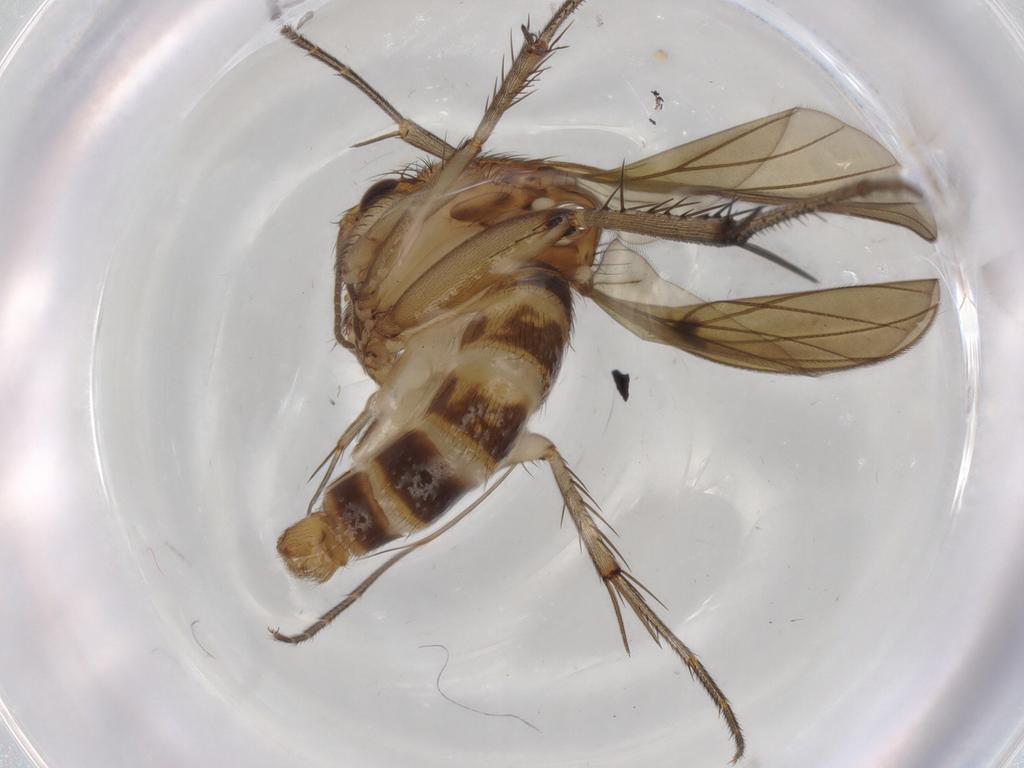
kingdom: Animalia
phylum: Arthropoda
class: Insecta
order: Diptera
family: Chironomidae
